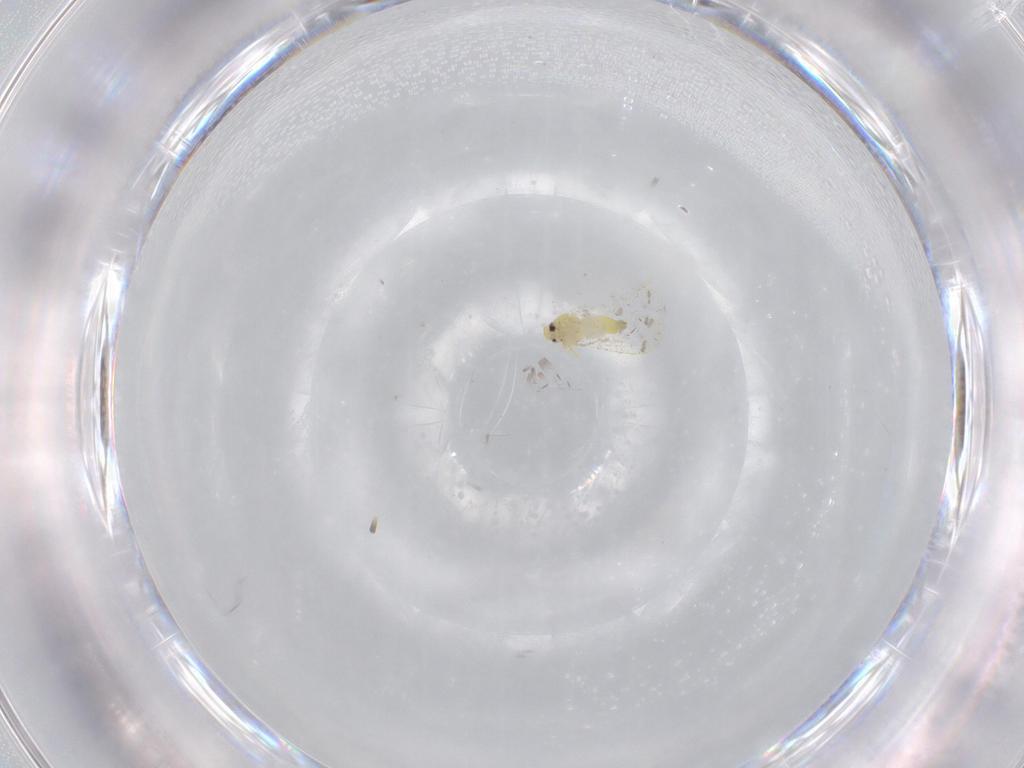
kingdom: Animalia
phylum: Arthropoda
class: Insecta
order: Hemiptera
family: Aleyrodidae
